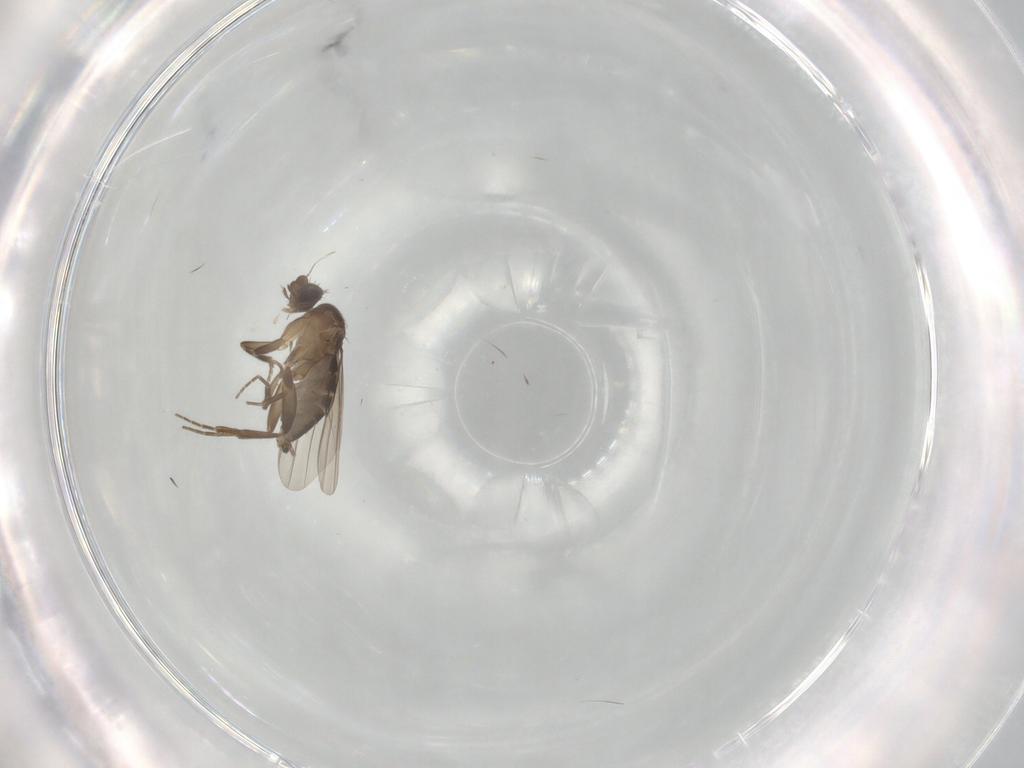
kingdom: Animalia
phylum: Arthropoda
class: Insecta
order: Diptera
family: Phoridae
